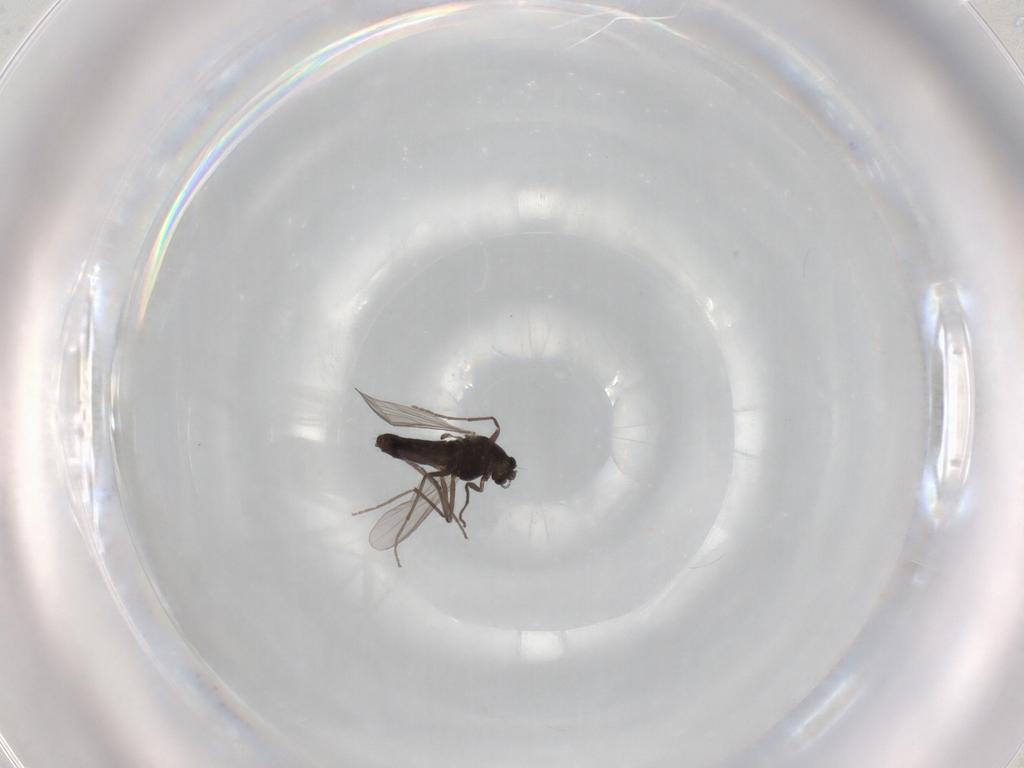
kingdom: Animalia
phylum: Arthropoda
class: Insecta
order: Diptera
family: Chironomidae
